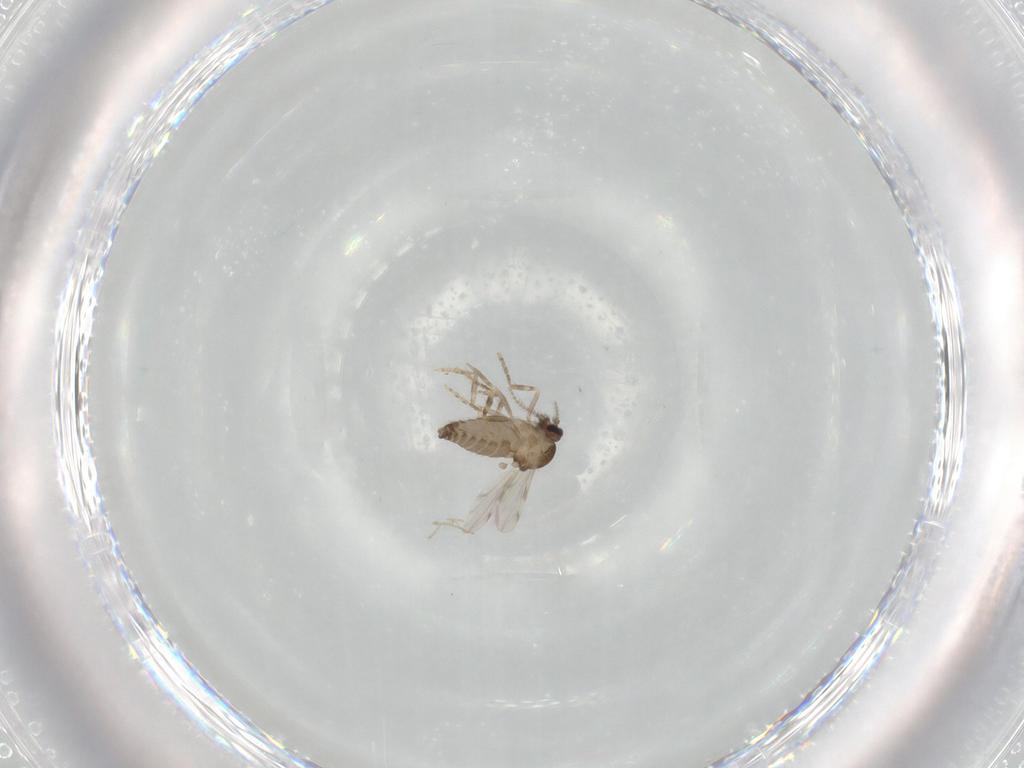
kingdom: Animalia
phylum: Arthropoda
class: Insecta
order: Diptera
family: Ceratopogonidae
